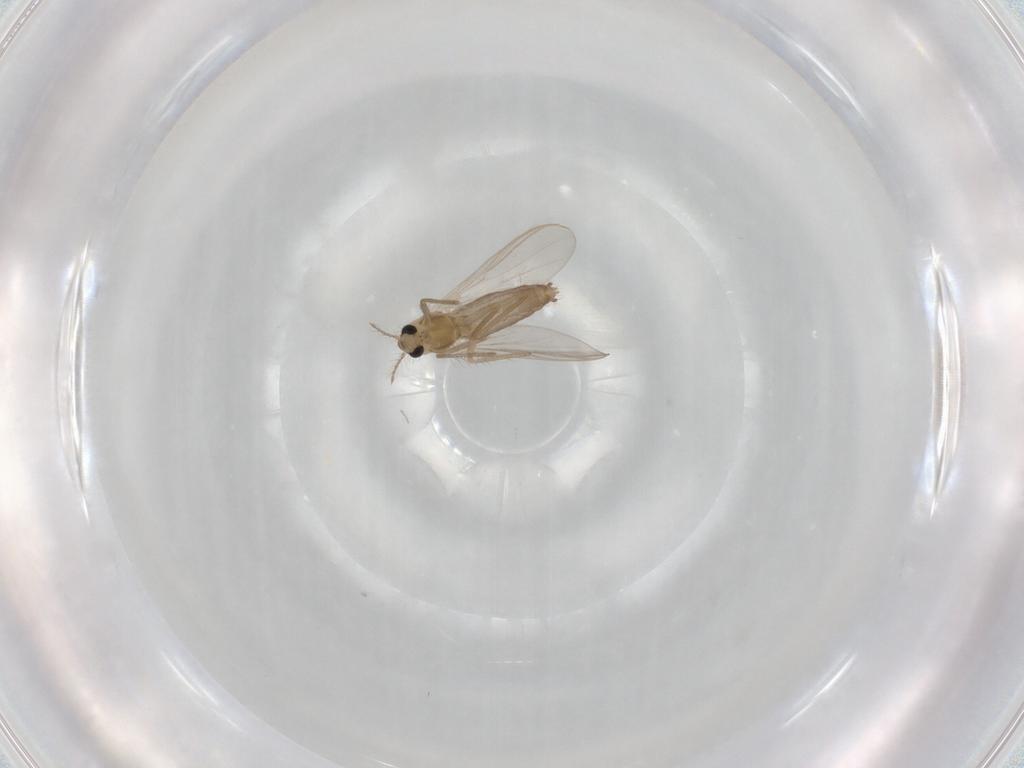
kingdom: Animalia
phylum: Arthropoda
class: Insecta
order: Diptera
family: Chironomidae
